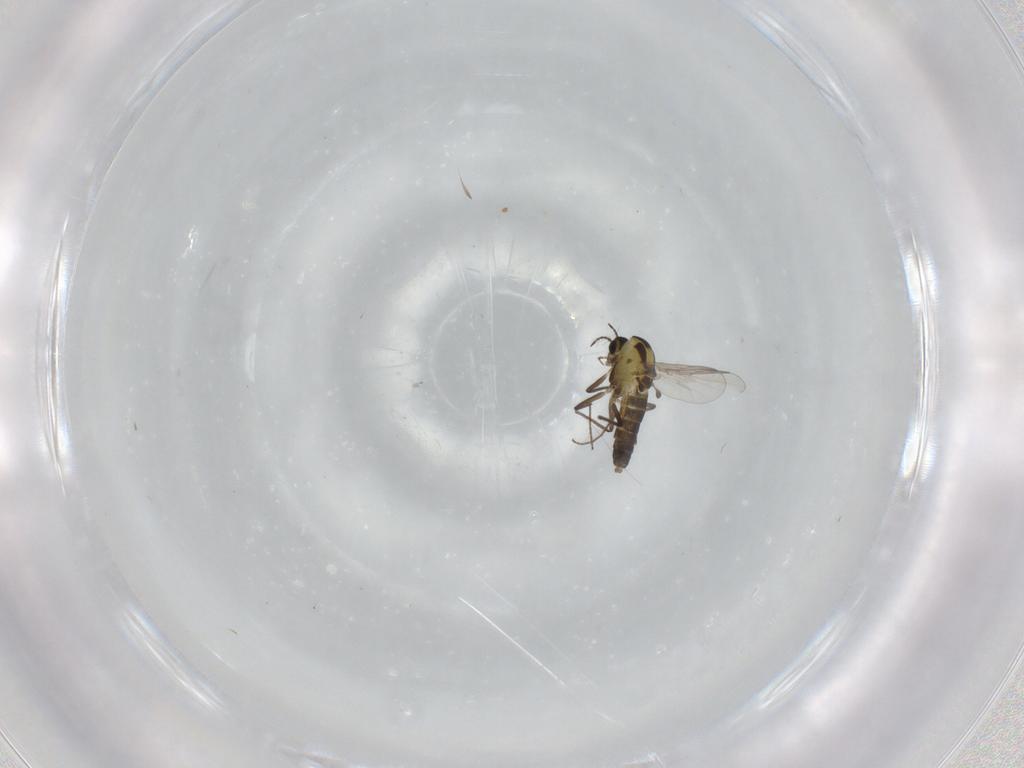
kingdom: Animalia
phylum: Arthropoda
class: Insecta
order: Diptera
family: Chironomidae
